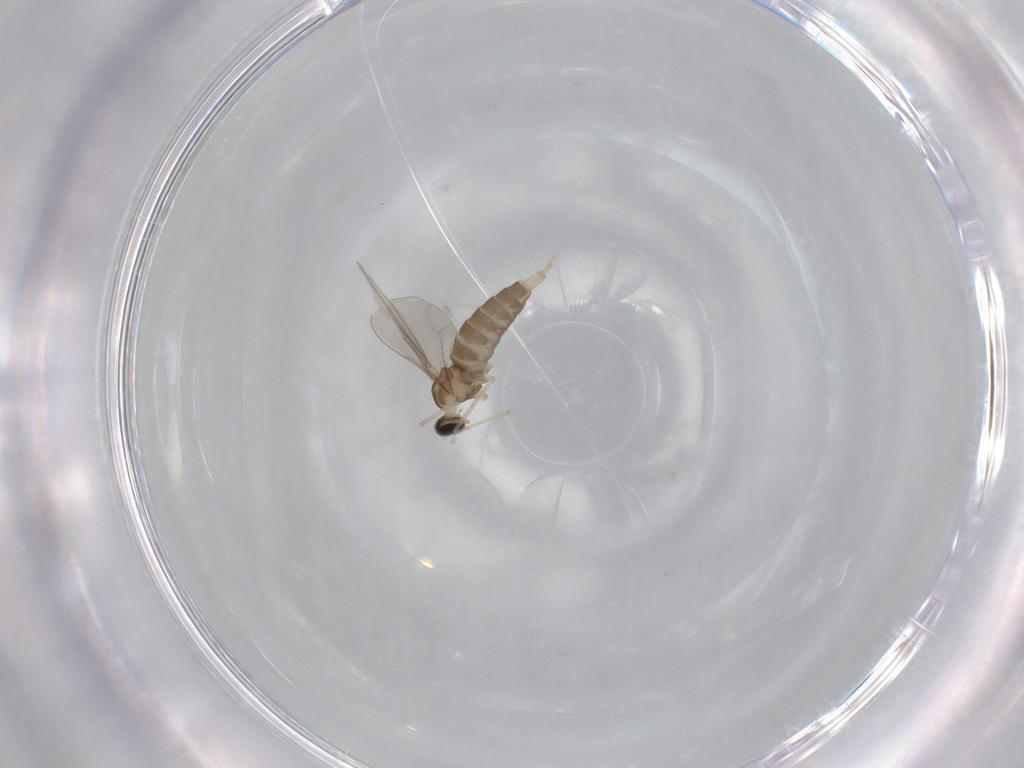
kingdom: Animalia
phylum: Arthropoda
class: Insecta
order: Diptera
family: Cecidomyiidae
